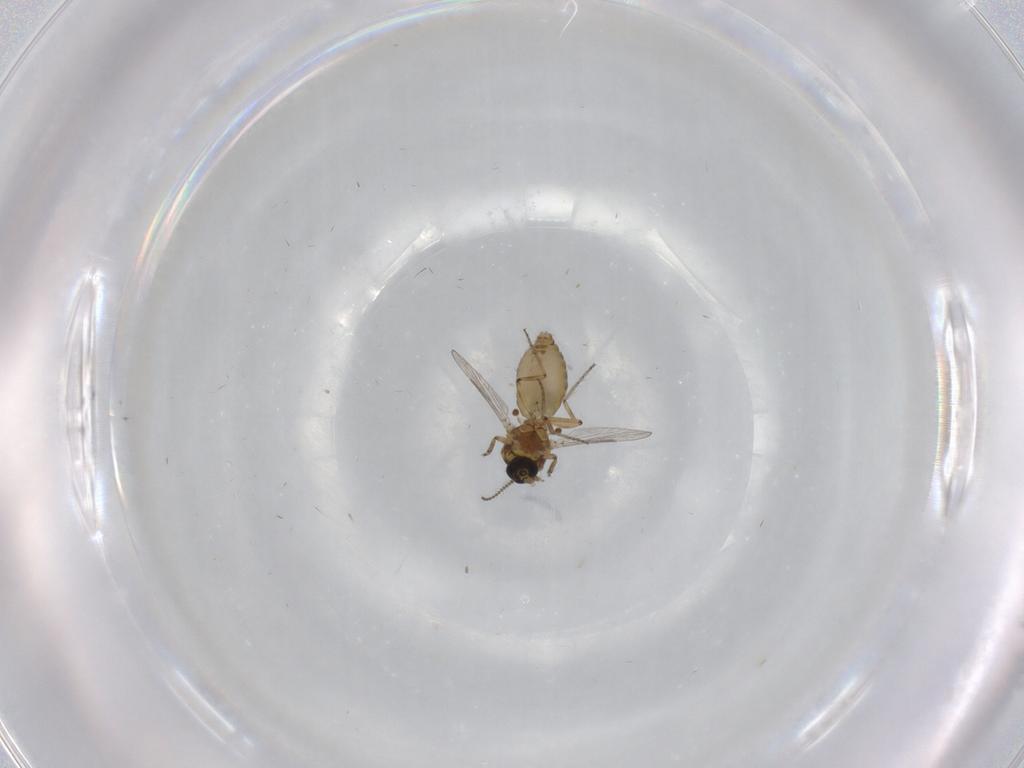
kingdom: Animalia
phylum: Arthropoda
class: Insecta
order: Diptera
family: Ceratopogonidae
